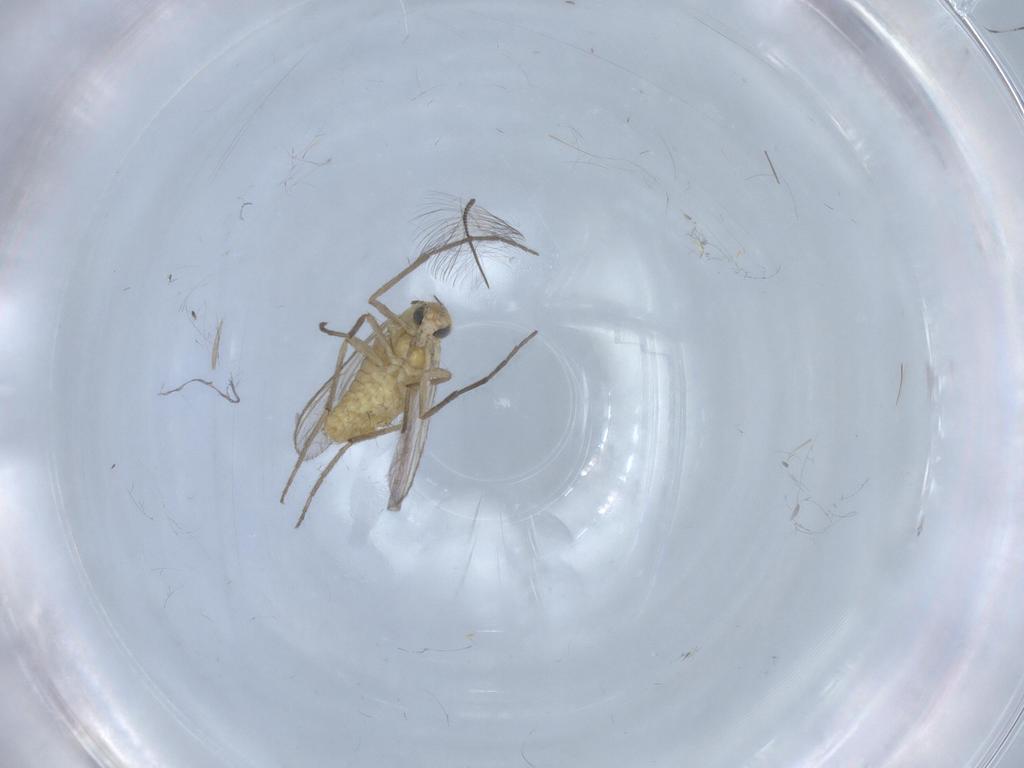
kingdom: Animalia
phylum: Arthropoda
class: Insecta
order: Diptera
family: Chironomidae
